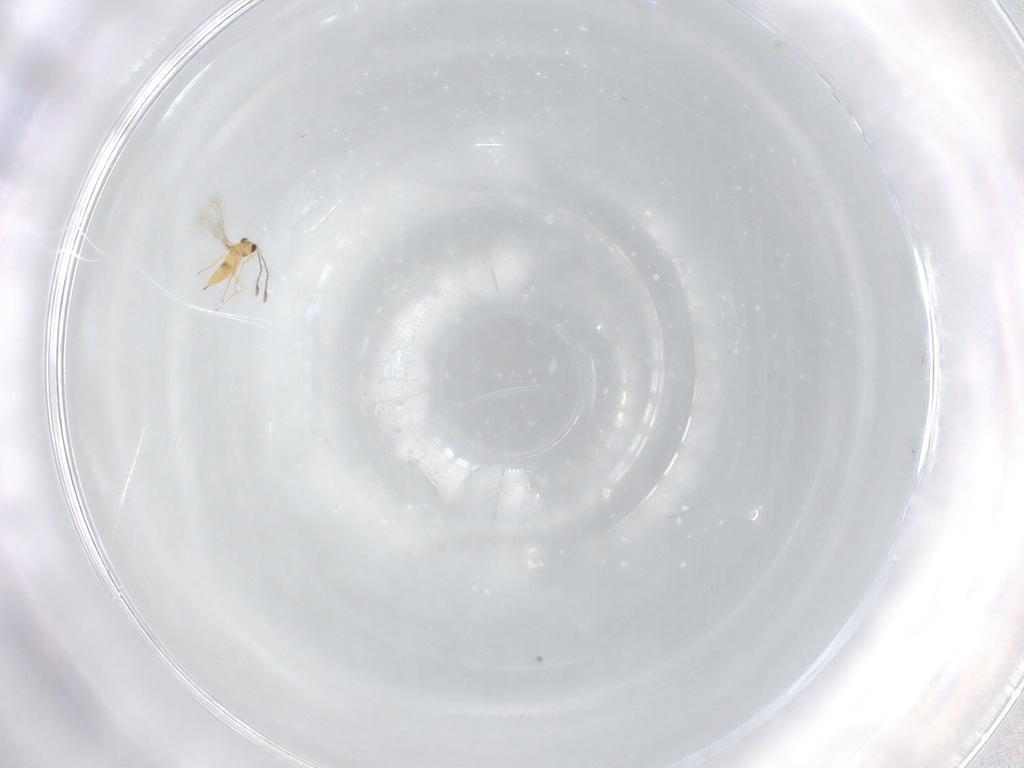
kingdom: Animalia
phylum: Arthropoda
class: Insecta
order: Hymenoptera
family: Mymaridae
